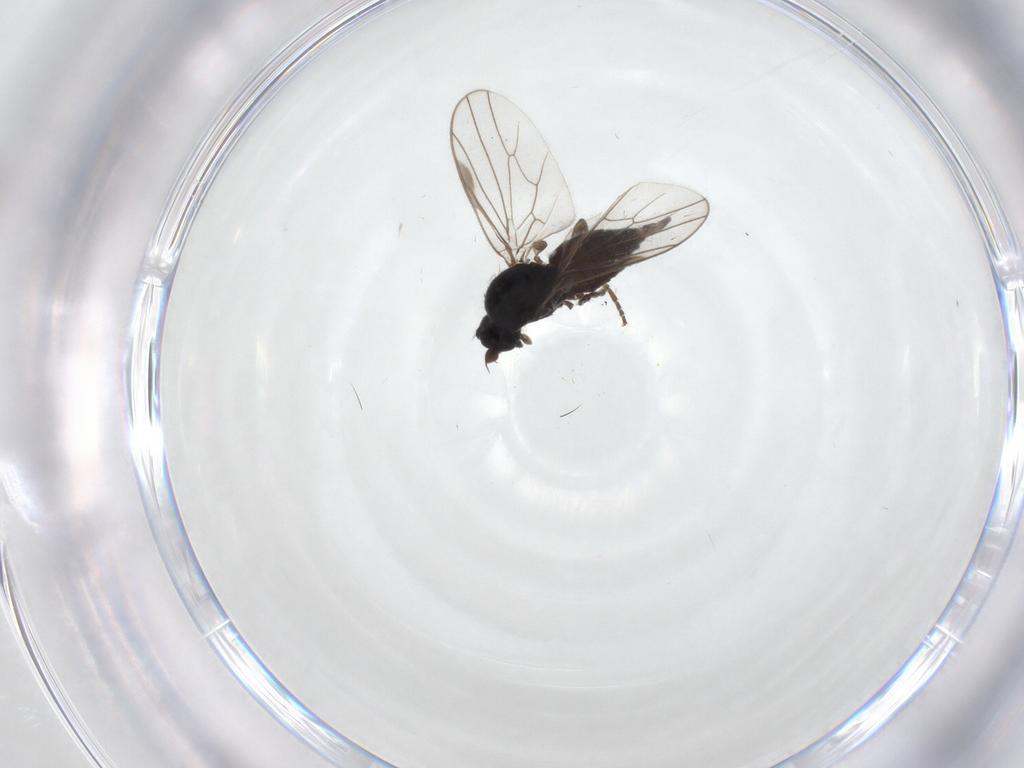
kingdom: Animalia
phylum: Arthropoda
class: Insecta
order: Diptera
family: Hybotidae
